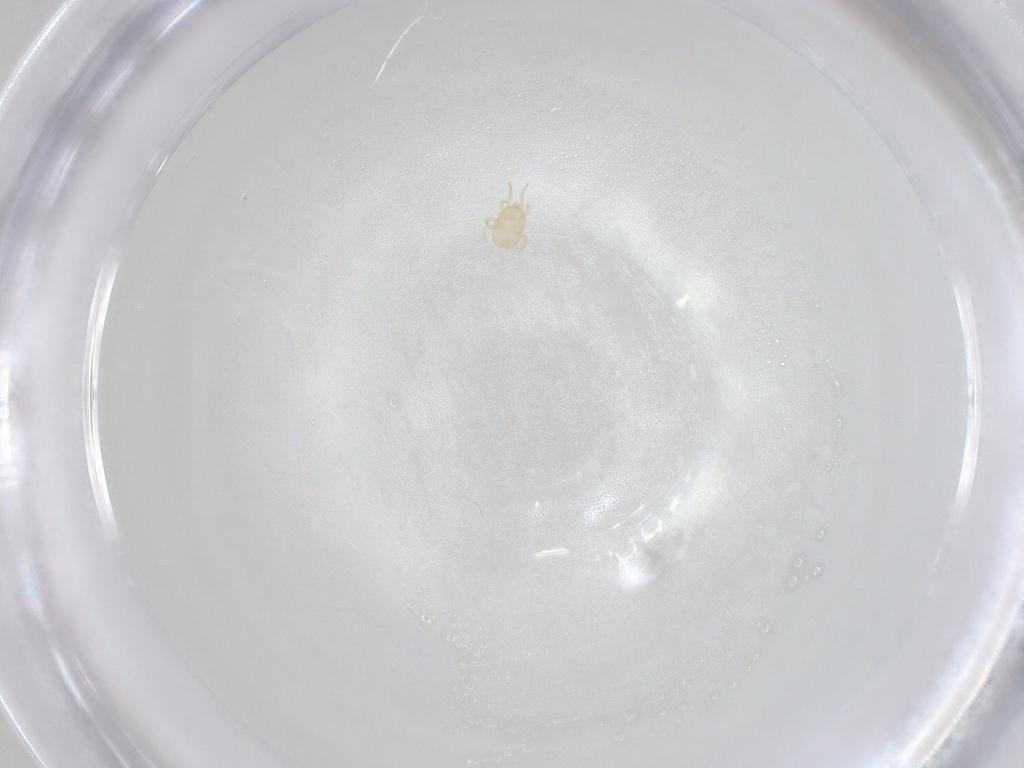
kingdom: Animalia
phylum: Arthropoda
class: Arachnida
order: Mesostigmata
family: Ameroseiidae
